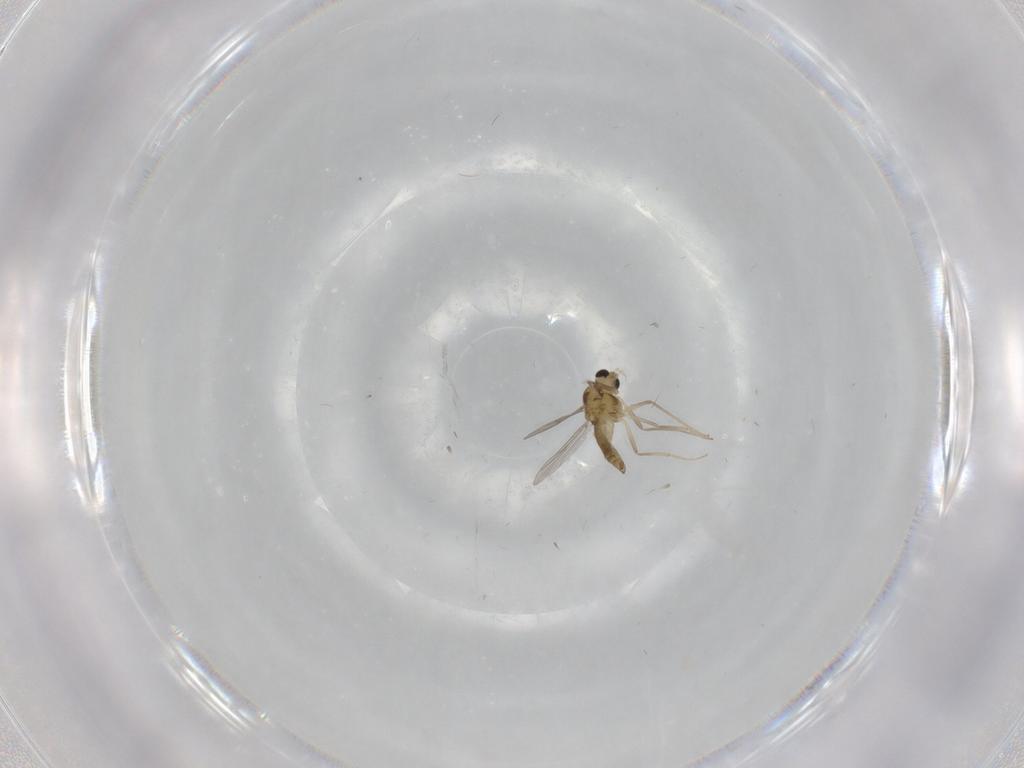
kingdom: Animalia
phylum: Arthropoda
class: Insecta
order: Diptera
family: Chironomidae
